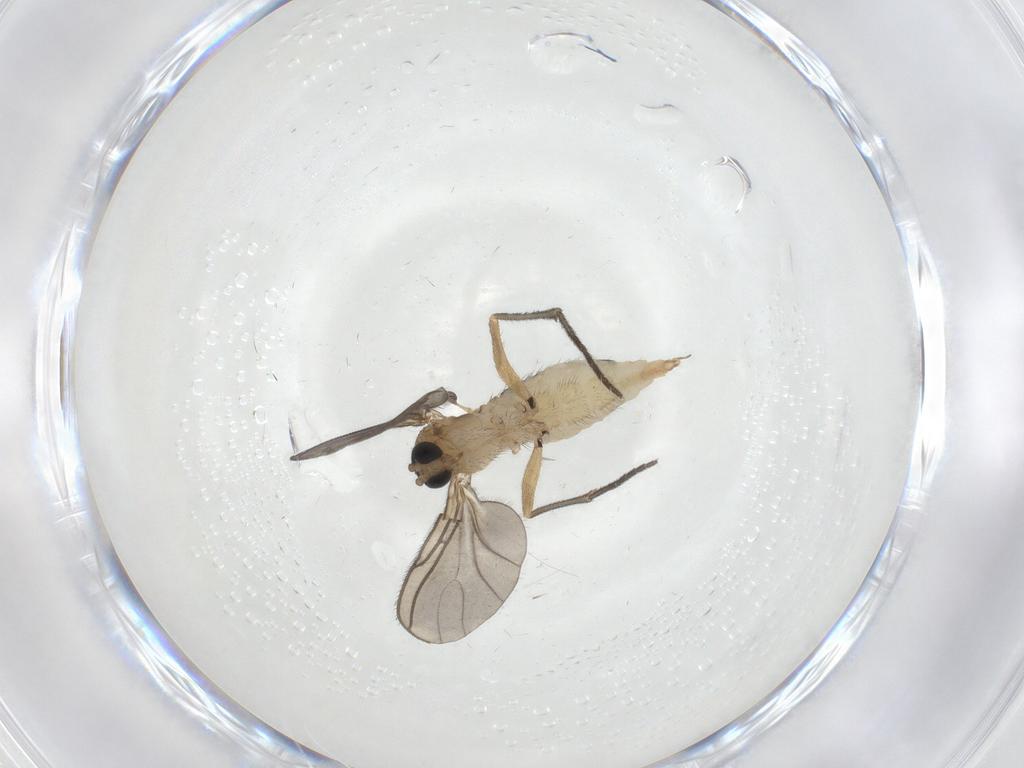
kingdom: Animalia
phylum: Arthropoda
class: Insecta
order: Diptera
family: Sciaridae
